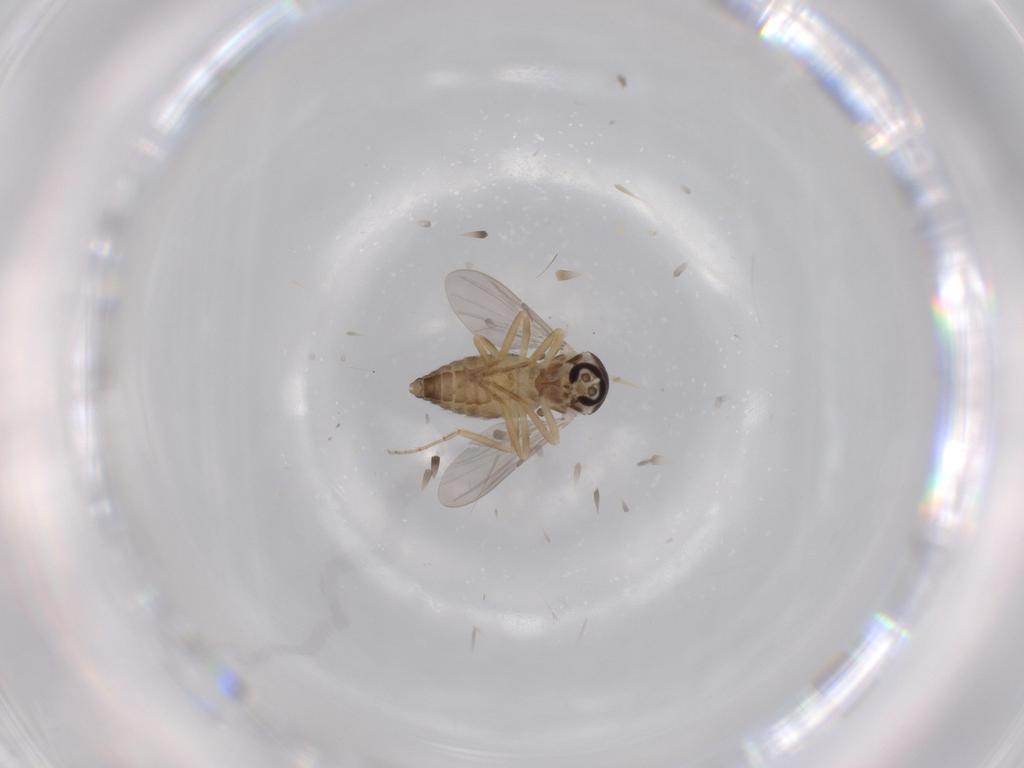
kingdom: Animalia
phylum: Arthropoda
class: Insecta
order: Diptera
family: Ceratopogonidae
